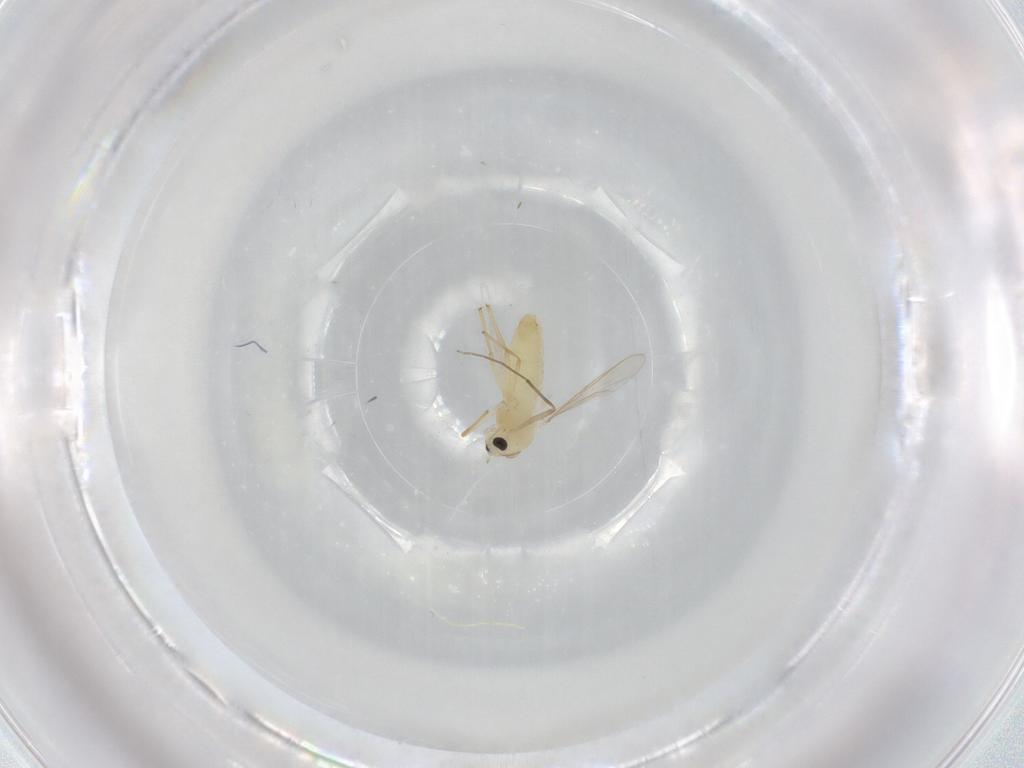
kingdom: Animalia
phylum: Arthropoda
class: Insecta
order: Diptera
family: Chironomidae
